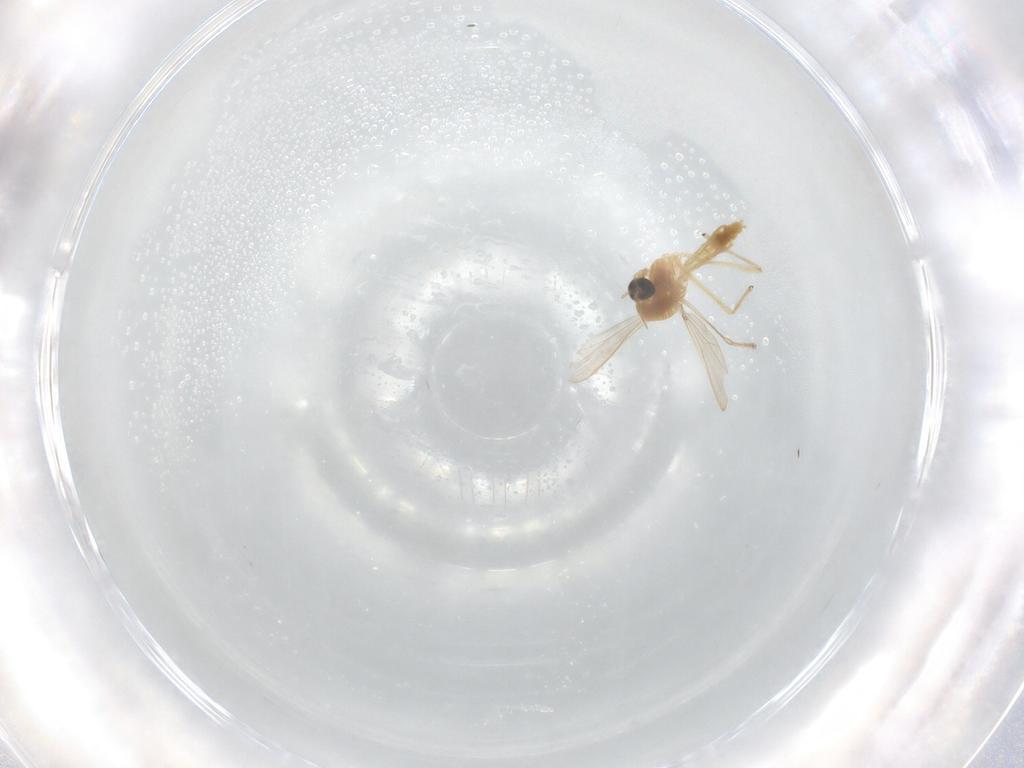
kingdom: Animalia
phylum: Arthropoda
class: Insecta
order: Diptera
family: Chironomidae
